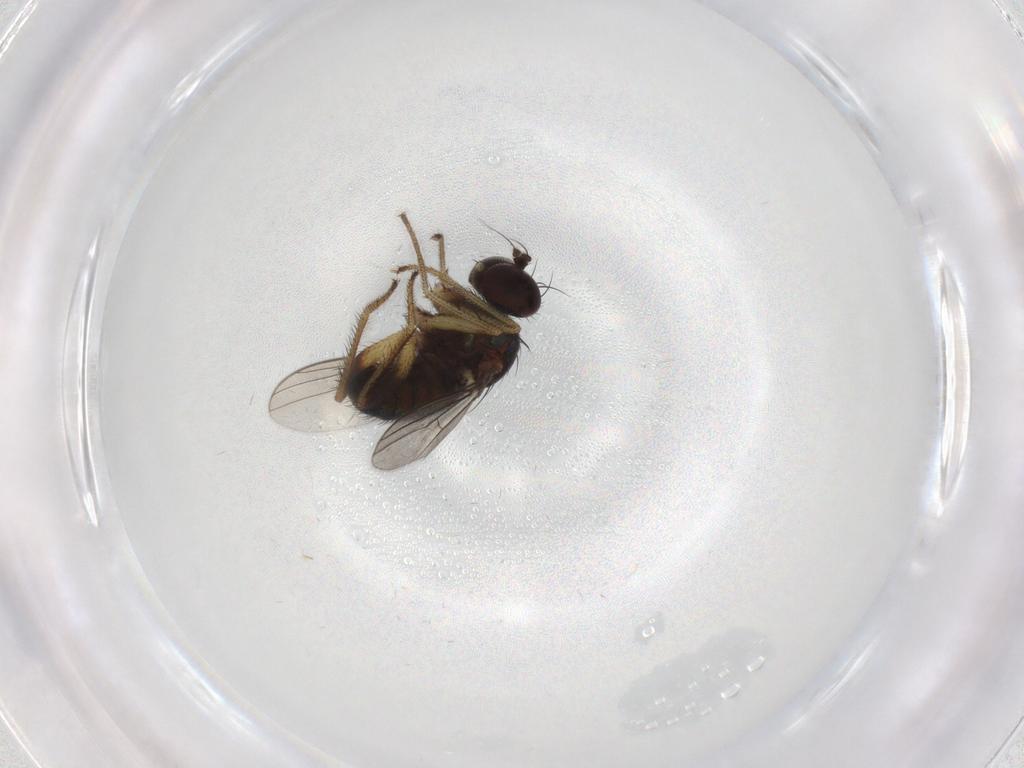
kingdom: Animalia
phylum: Arthropoda
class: Insecta
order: Diptera
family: Dolichopodidae
